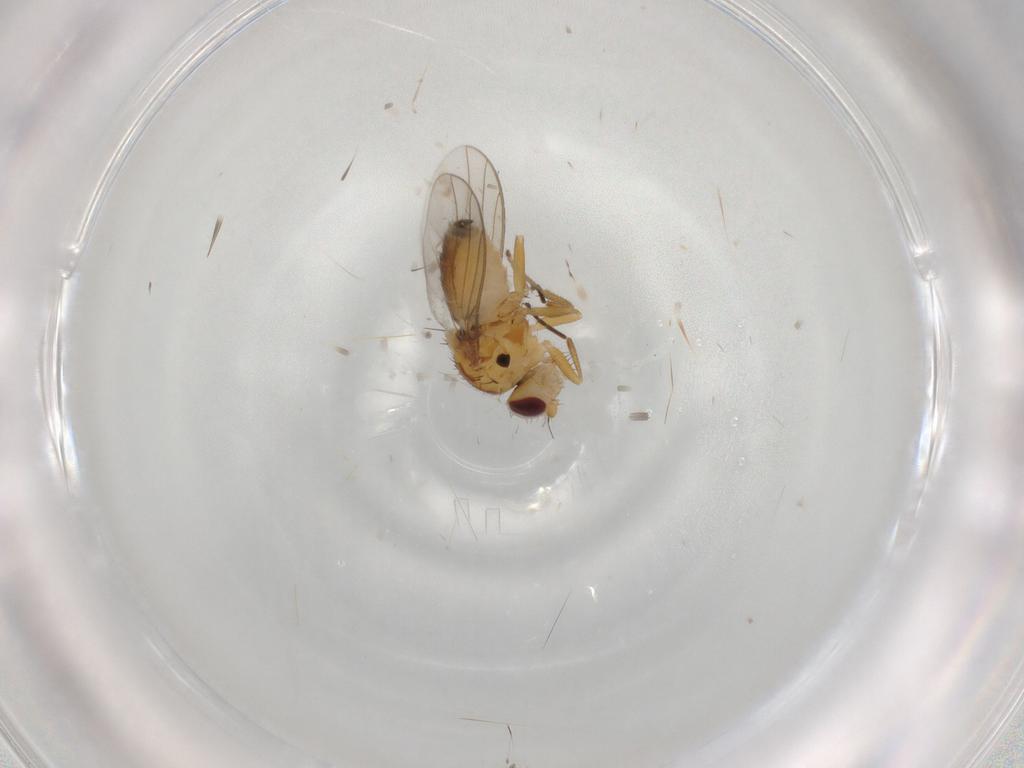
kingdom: Animalia
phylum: Arthropoda
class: Insecta
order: Diptera
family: Chloropidae
